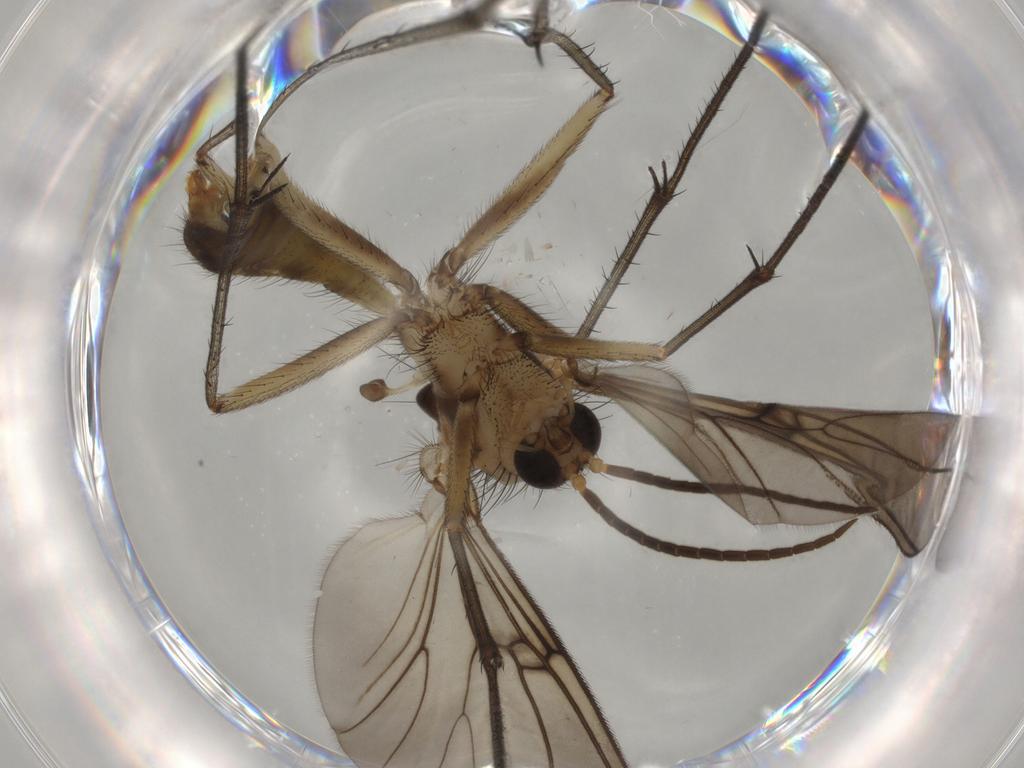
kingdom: Animalia
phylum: Arthropoda
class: Insecta
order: Diptera
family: Mycetophilidae
